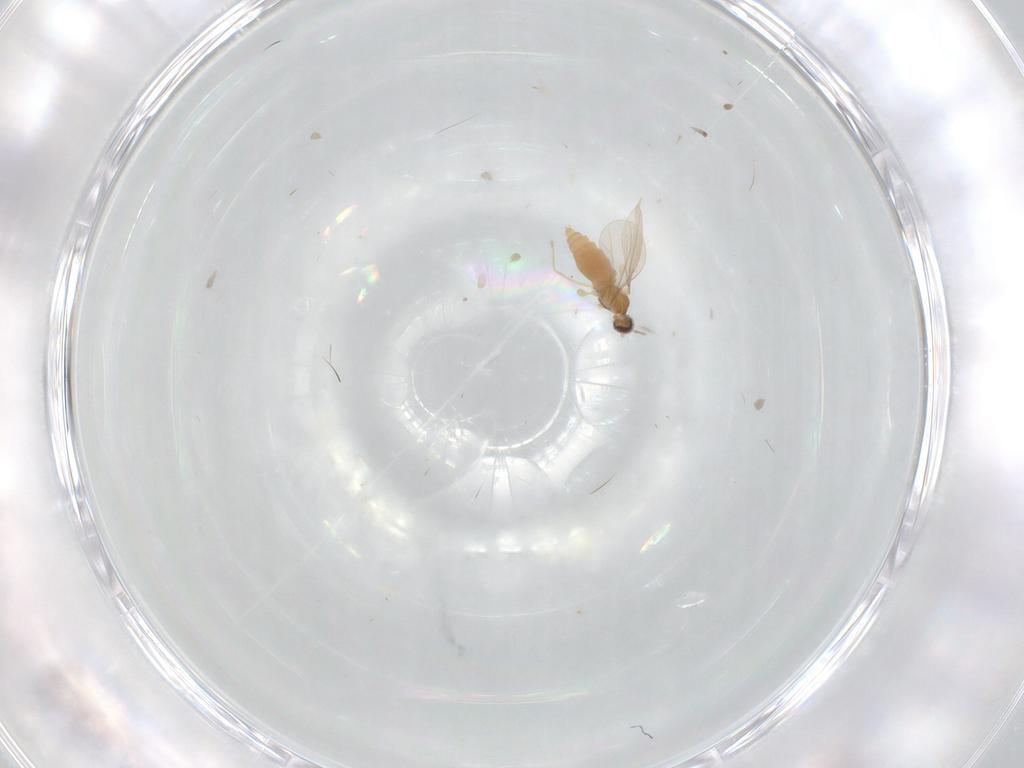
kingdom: Animalia
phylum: Arthropoda
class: Insecta
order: Diptera
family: Cecidomyiidae
